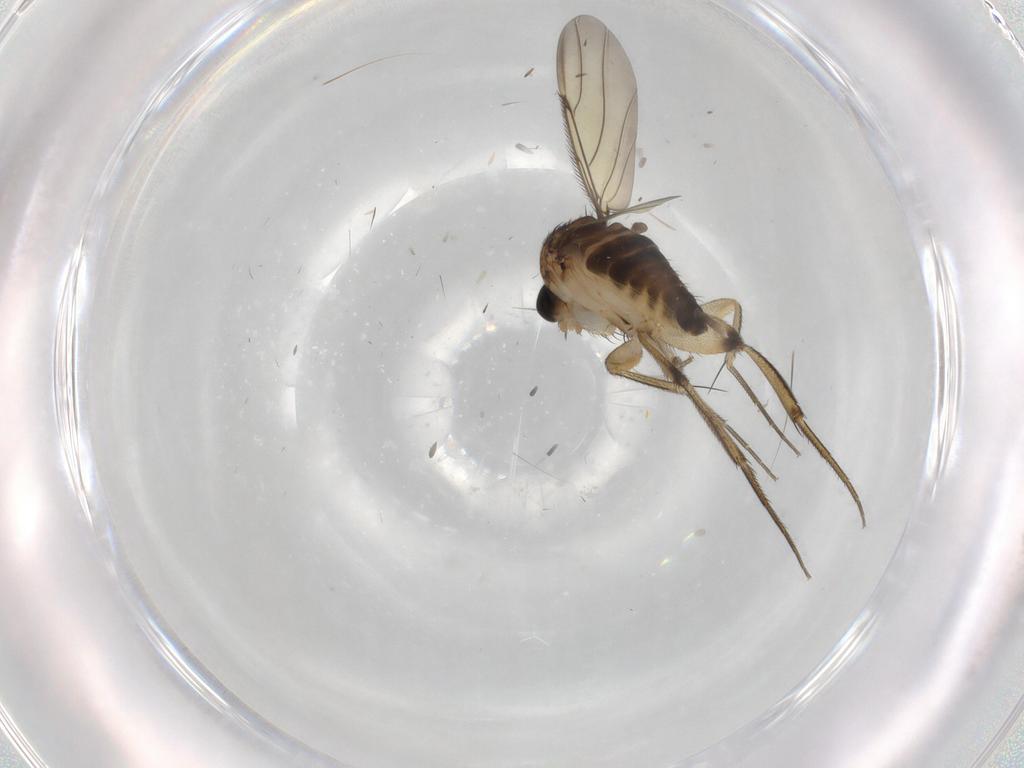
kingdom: Animalia
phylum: Arthropoda
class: Insecta
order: Diptera
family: Phoridae
